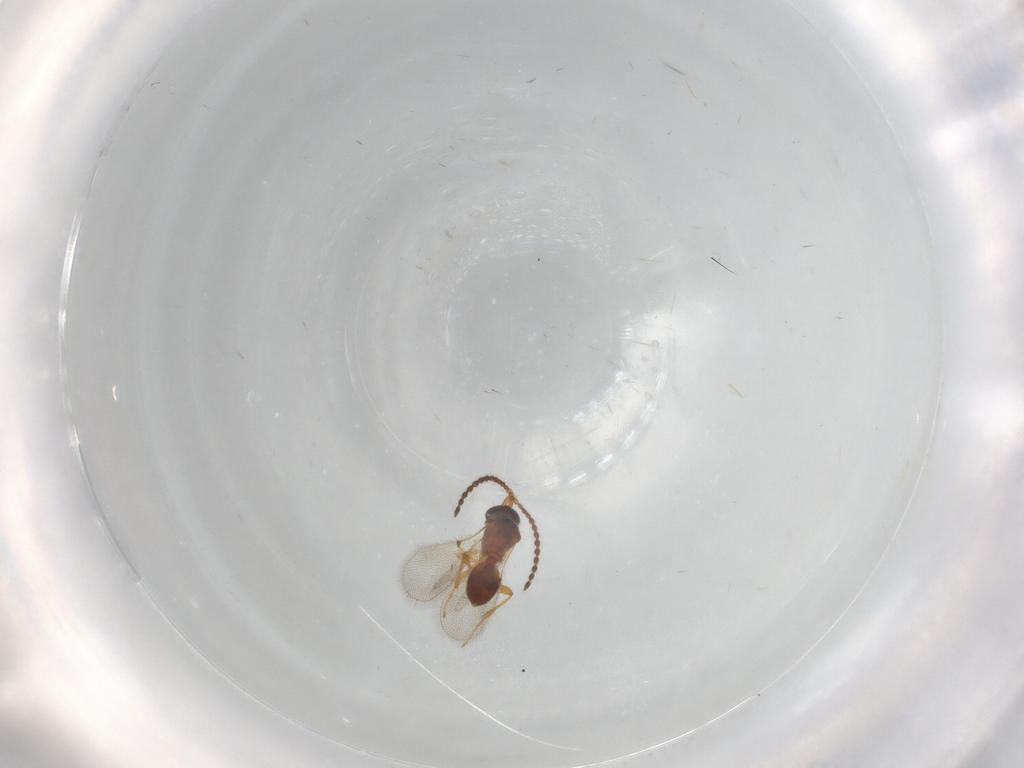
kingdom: Animalia
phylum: Arthropoda
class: Insecta
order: Hymenoptera
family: Diapriidae
